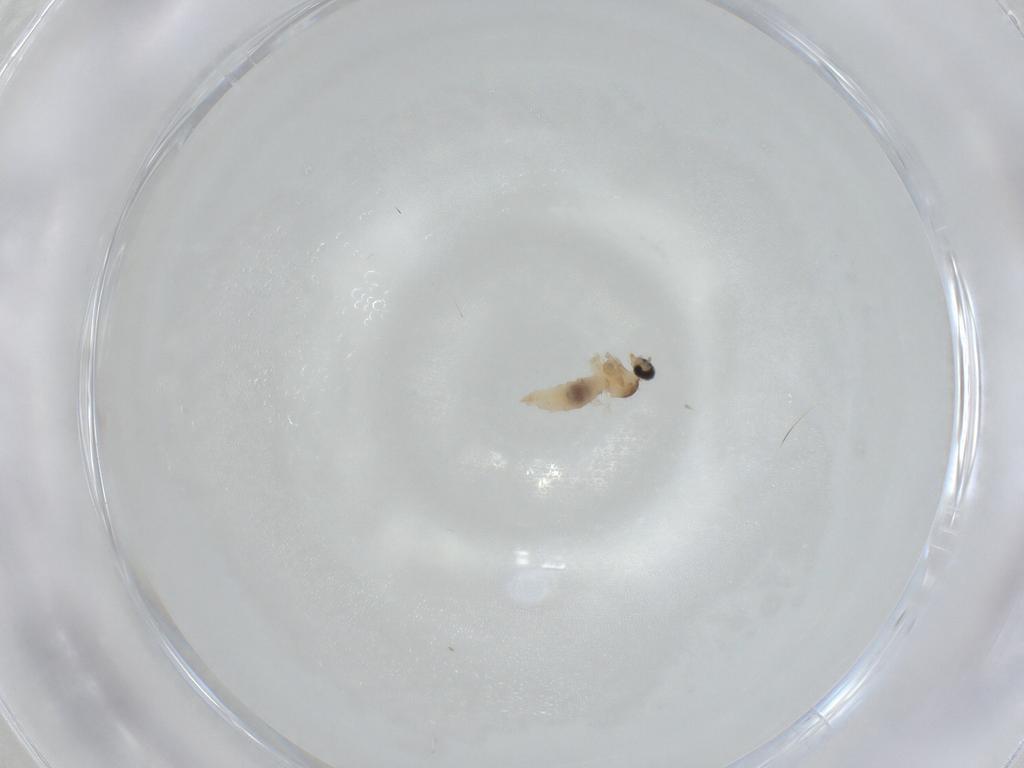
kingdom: Animalia
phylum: Arthropoda
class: Insecta
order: Diptera
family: Cecidomyiidae
